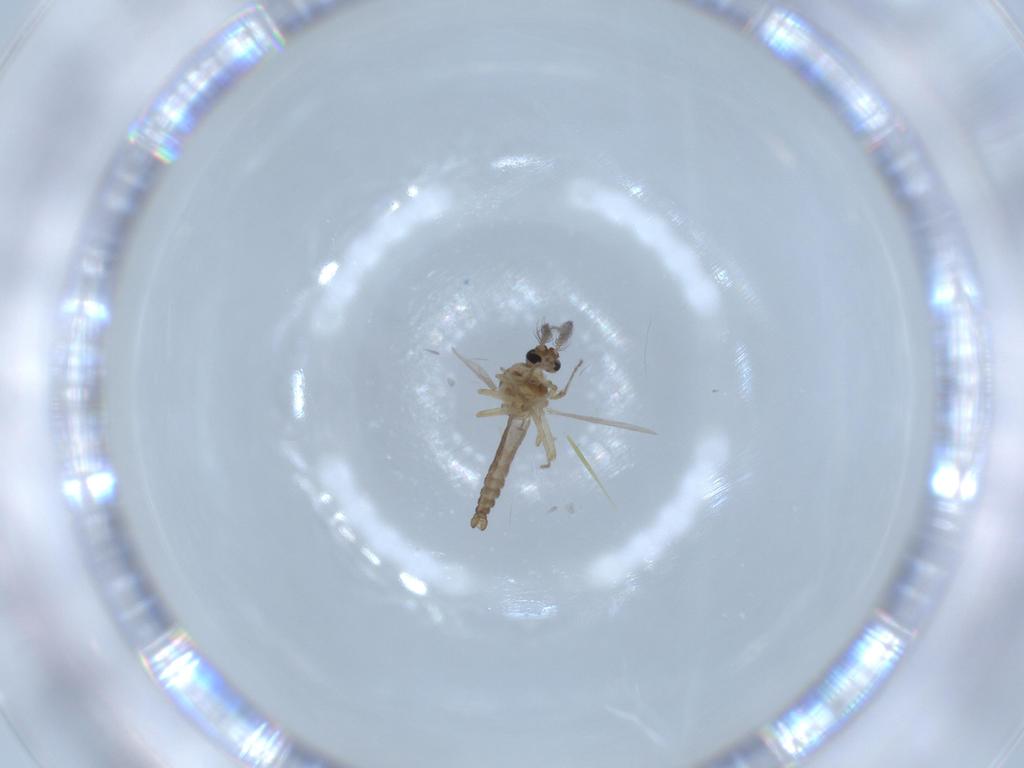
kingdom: Animalia
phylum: Arthropoda
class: Insecta
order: Diptera
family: Ceratopogonidae
